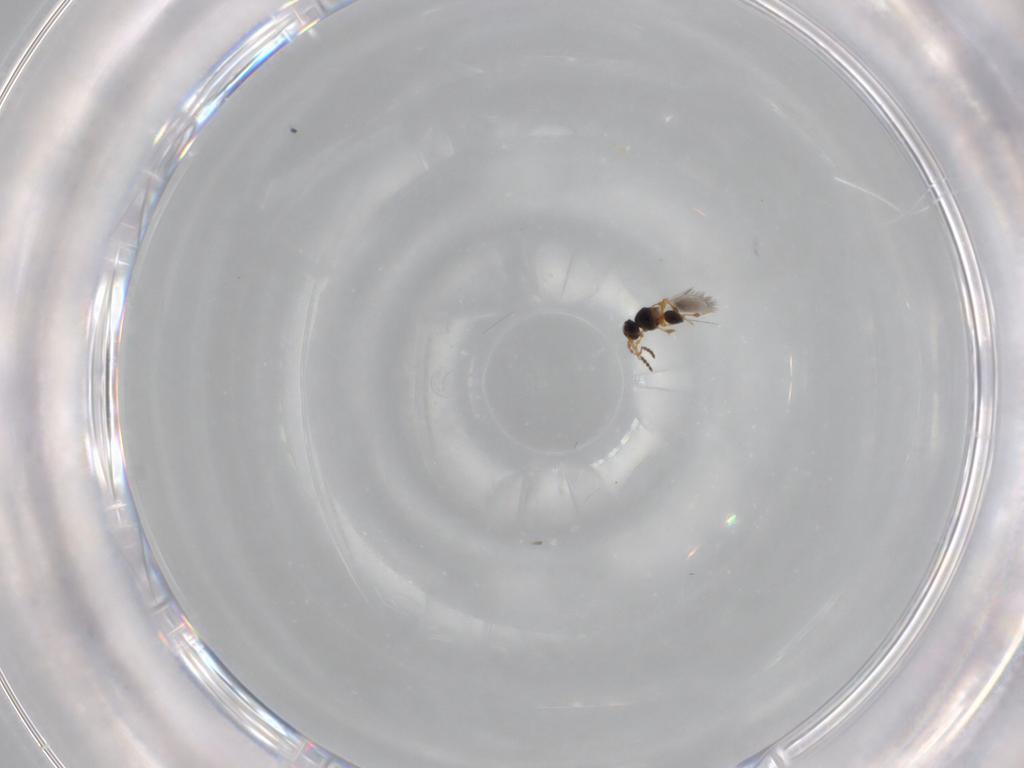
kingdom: Animalia
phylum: Arthropoda
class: Insecta
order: Hymenoptera
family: Platygastridae
